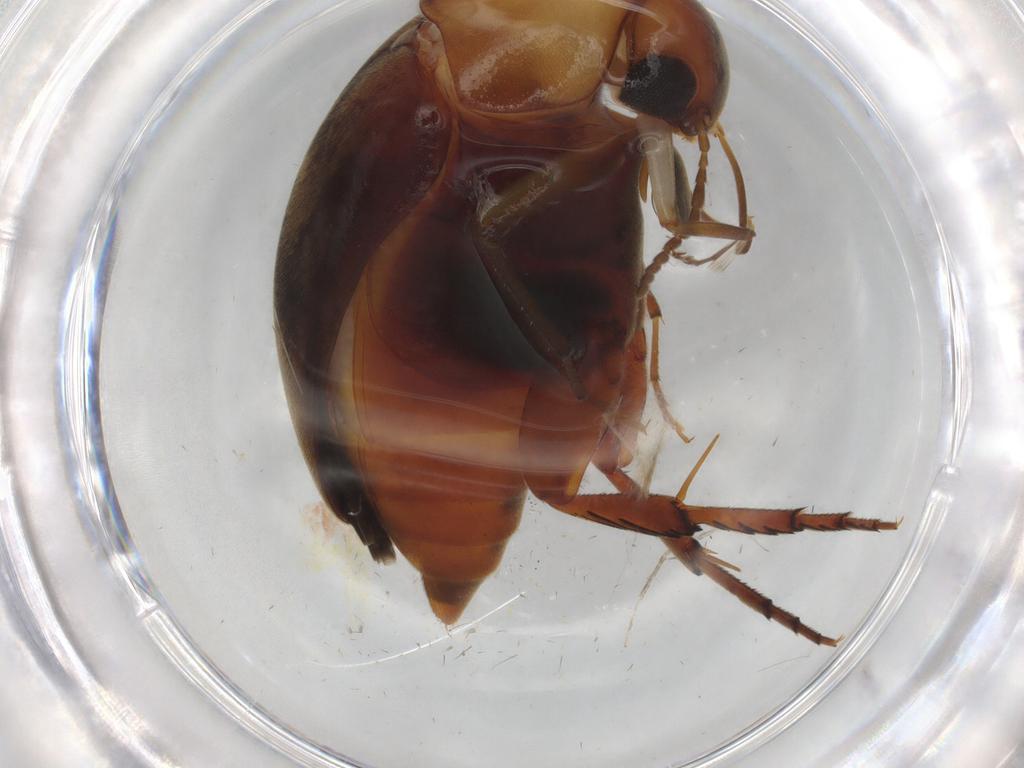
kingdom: Animalia
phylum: Arthropoda
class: Insecta
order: Coleoptera
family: Mordellidae
